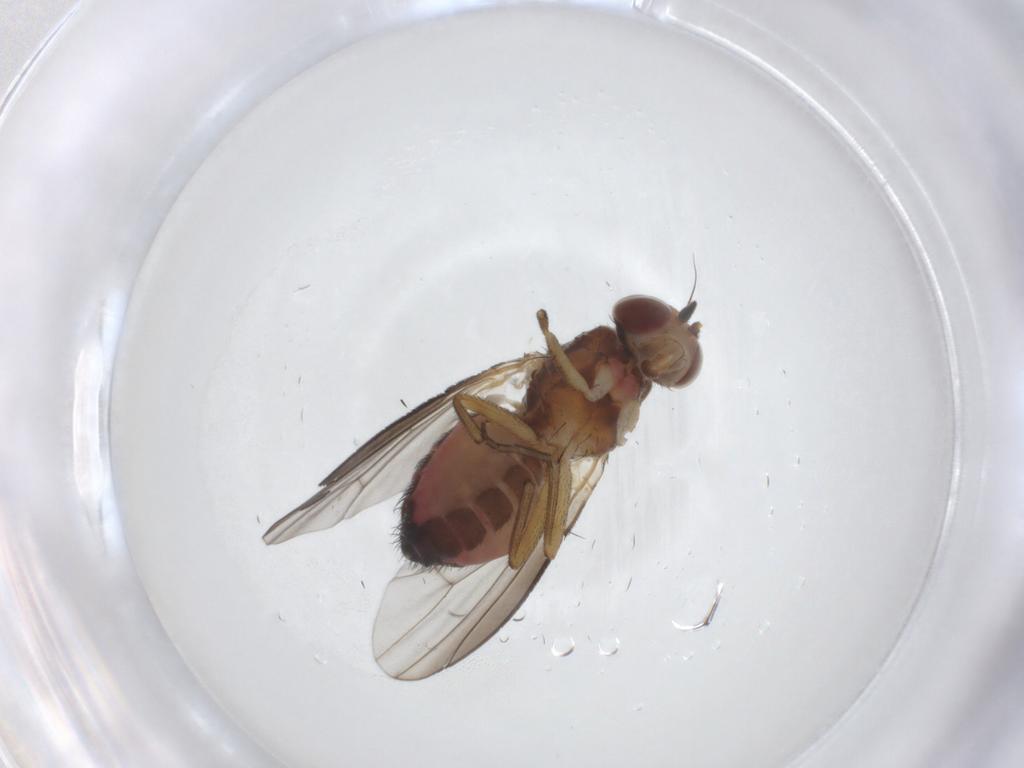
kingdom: Animalia
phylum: Arthropoda
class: Insecta
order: Diptera
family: Heleomyzidae
